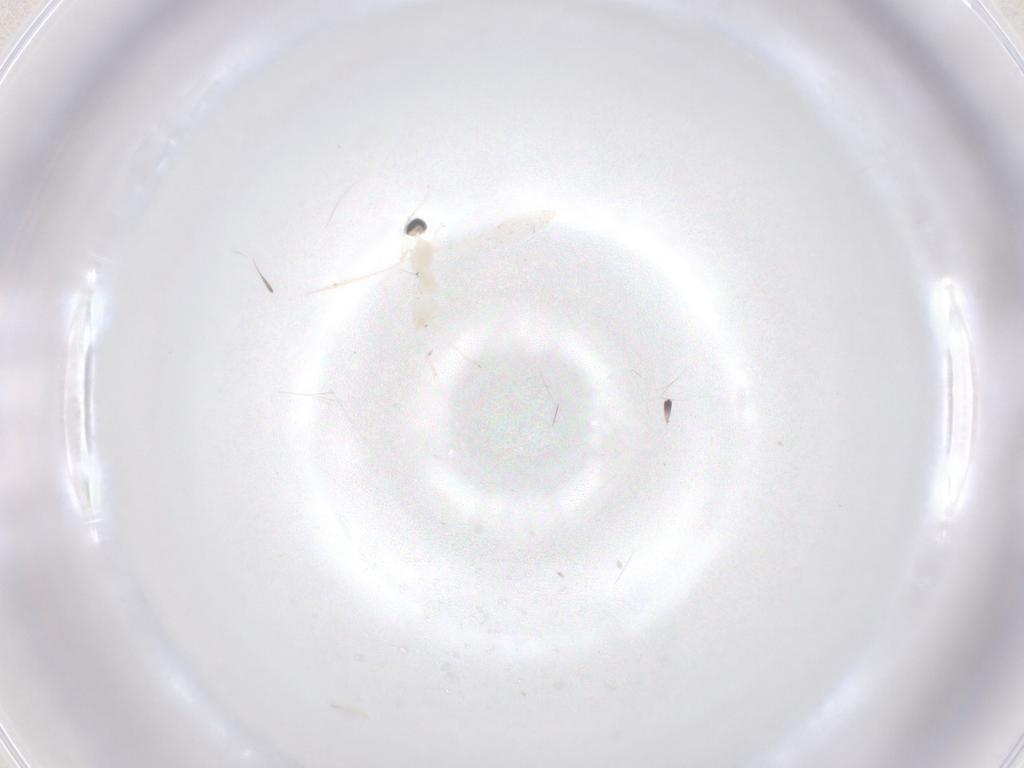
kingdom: Animalia
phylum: Arthropoda
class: Insecta
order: Diptera
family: Cecidomyiidae
